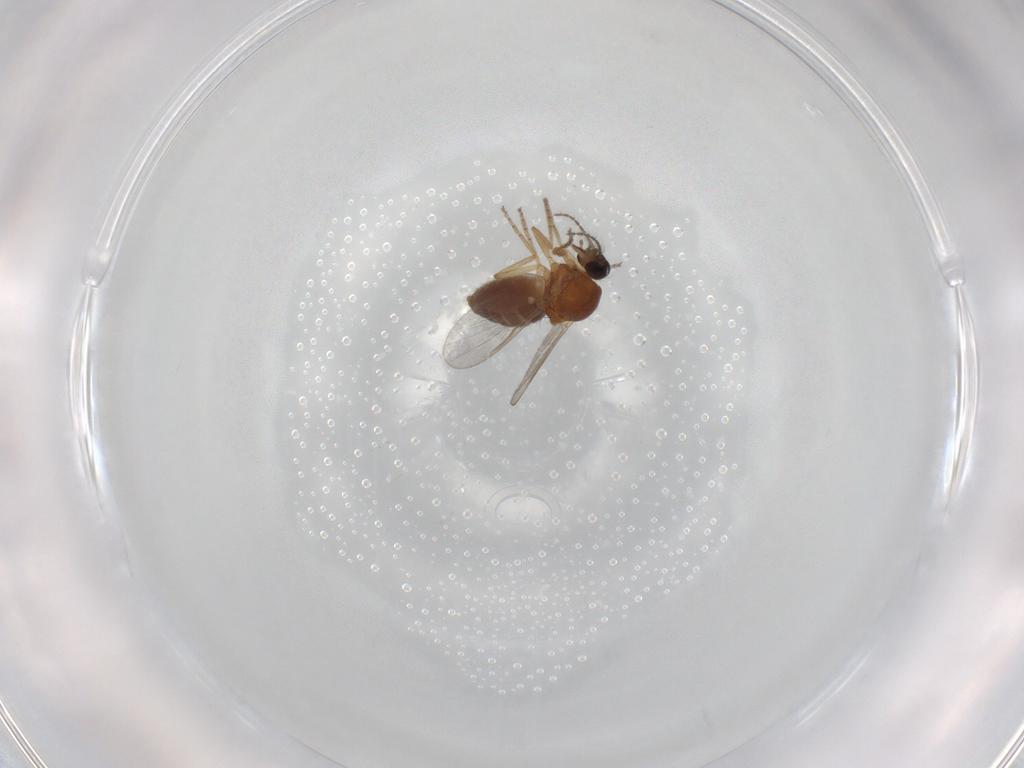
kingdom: Animalia
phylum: Arthropoda
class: Insecta
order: Diptera
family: Ceratopogonidae
